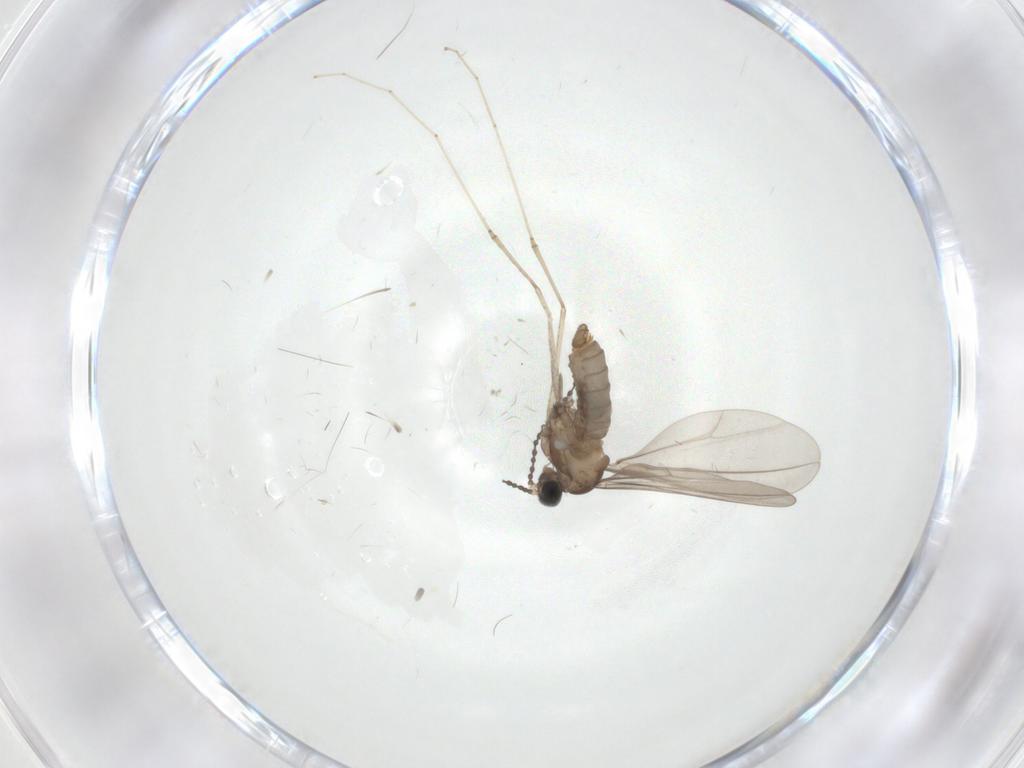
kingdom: Animalia
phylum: Arthropoda
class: Insecta
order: Diptera
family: Cecidomyiidae
